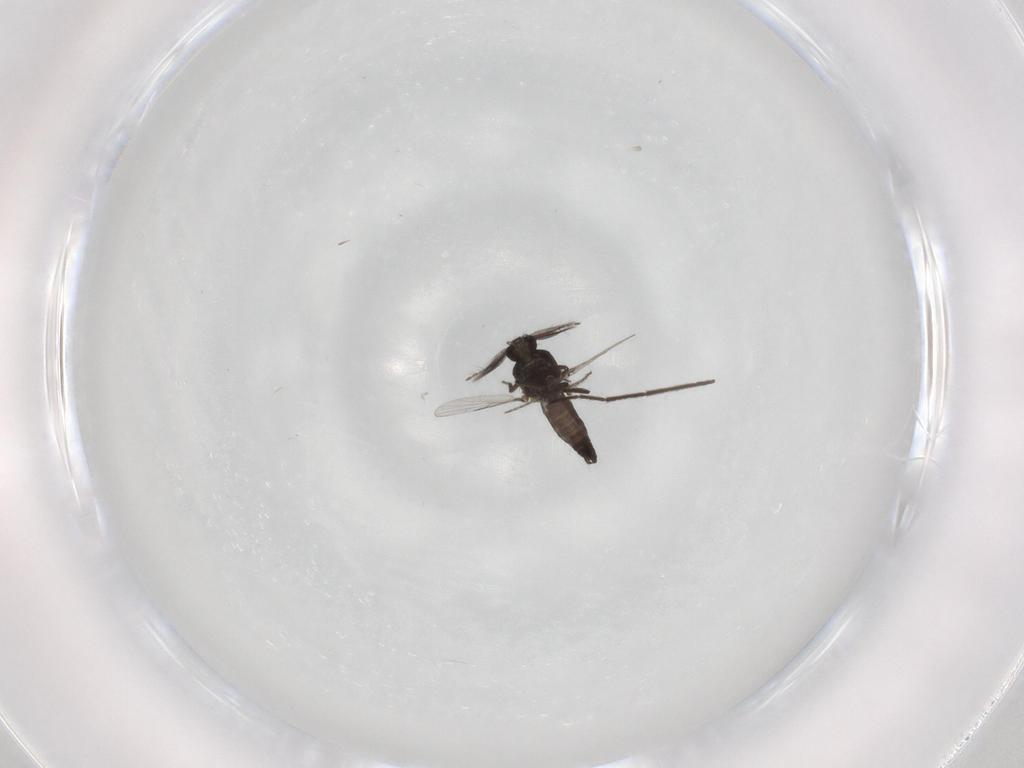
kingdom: Animalia
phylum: Arthropoda
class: Insecta
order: Diptera
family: Ceratopogonidae
